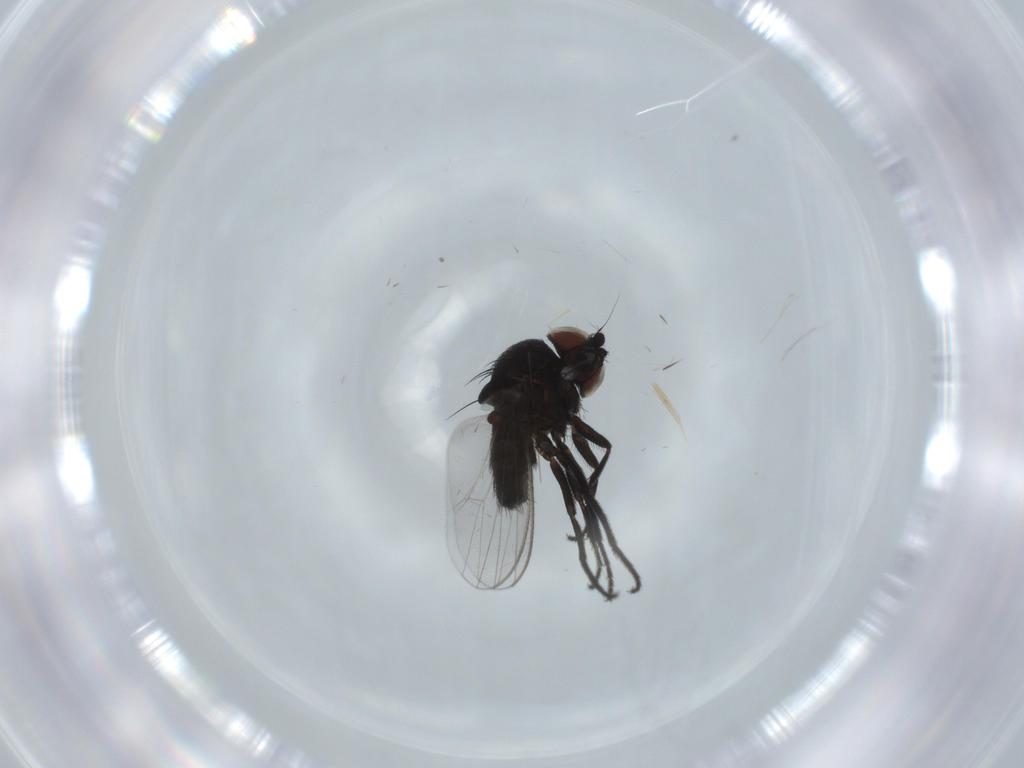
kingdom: Animalia
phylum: Arthropoda
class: Insecta
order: Diptera
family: Milichiidae
